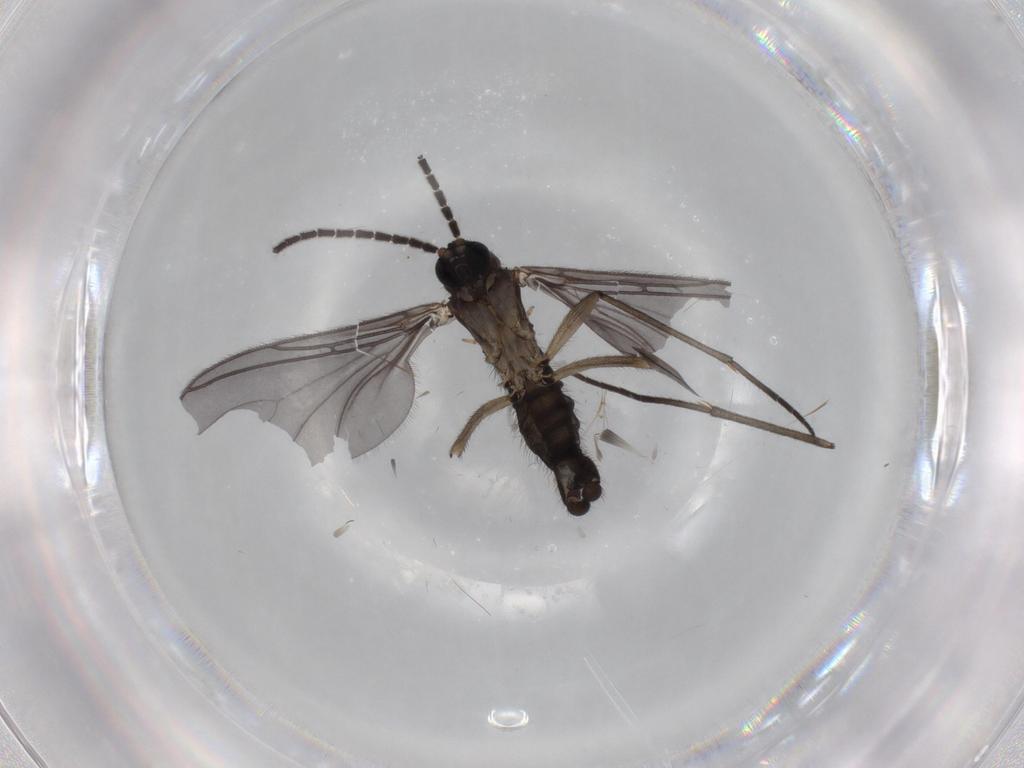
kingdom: Animalia
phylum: Arthropoda
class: Insecta
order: Diptera
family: Sciaridae
